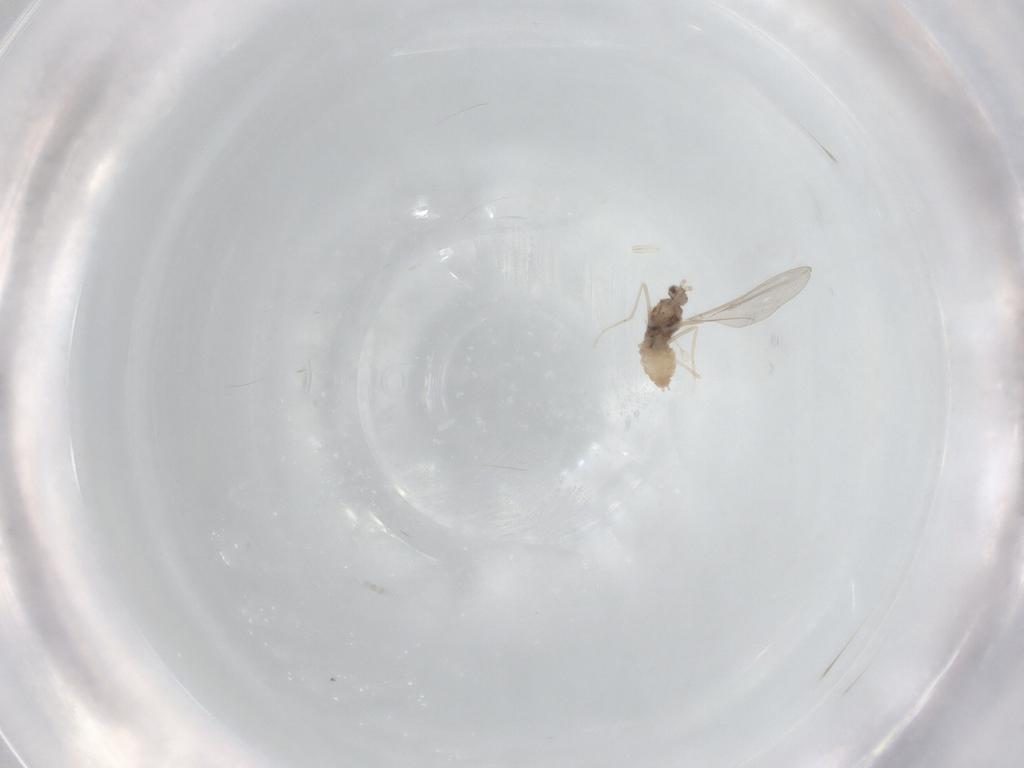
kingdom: Animalia
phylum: Arthropoda
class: Insecta
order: Diptera
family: Cecidomyiidae
